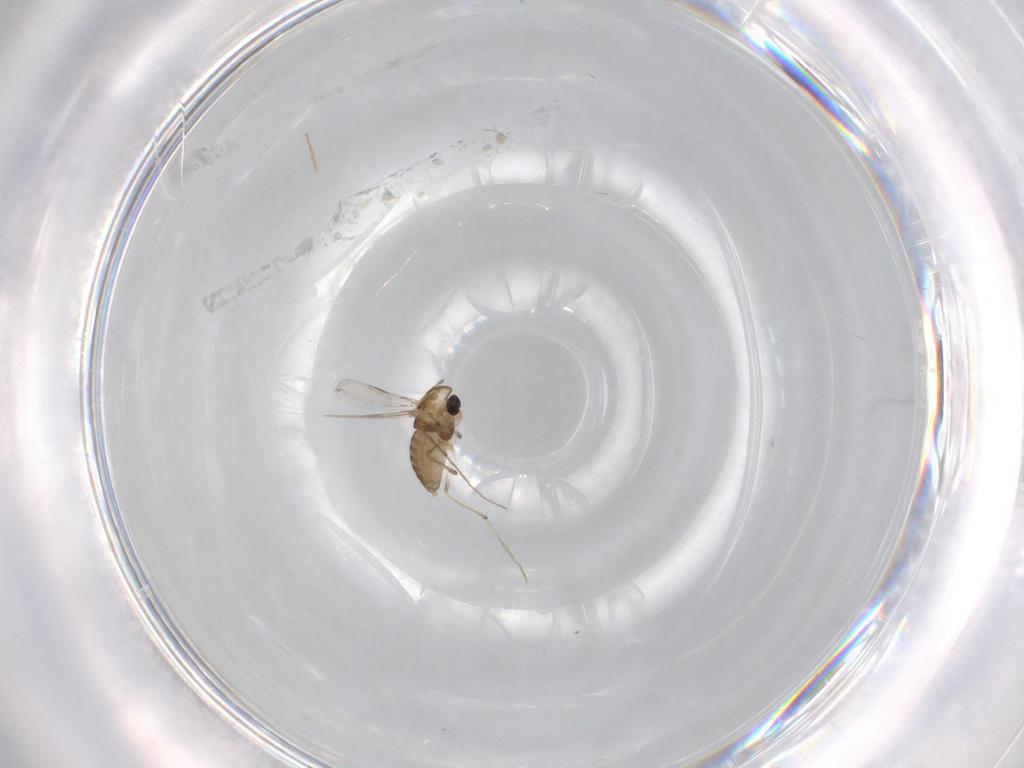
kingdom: Animalia
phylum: Arthropoda
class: Insecta
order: Diptera
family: Chironomidae
